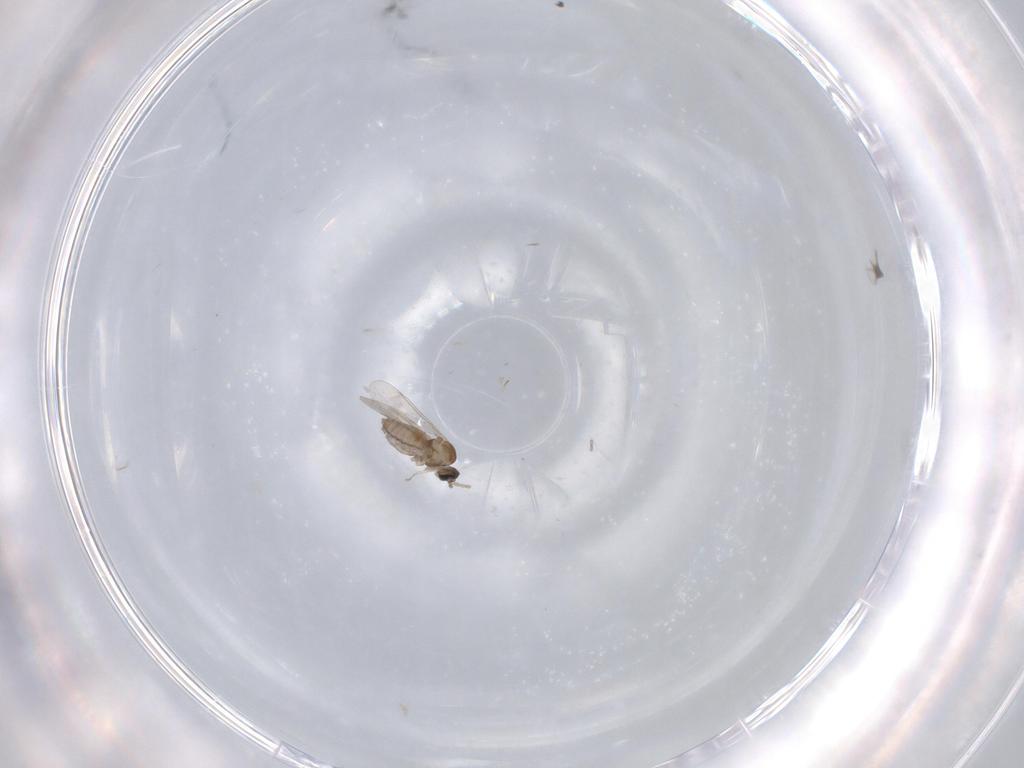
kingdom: Animalia
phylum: Arthropoda
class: Insecta
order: Diptera
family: Cecidomyiidae
